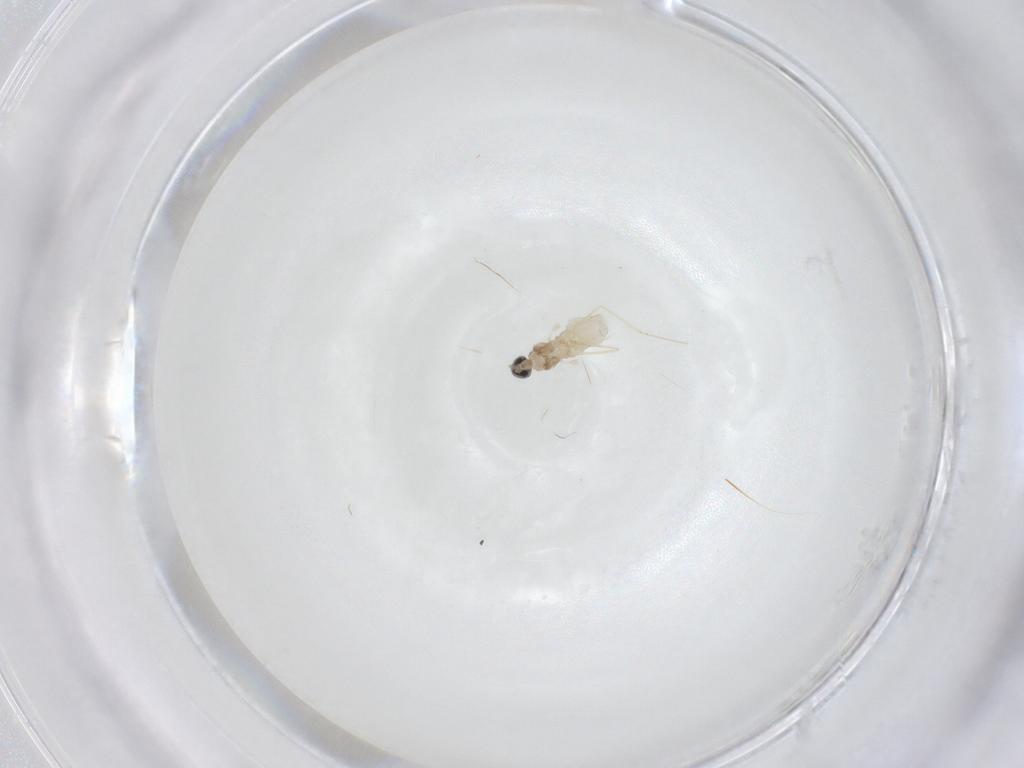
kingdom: Animalia
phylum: Arthropoda
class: Insecta
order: Diptera
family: Cecidomyiidae
